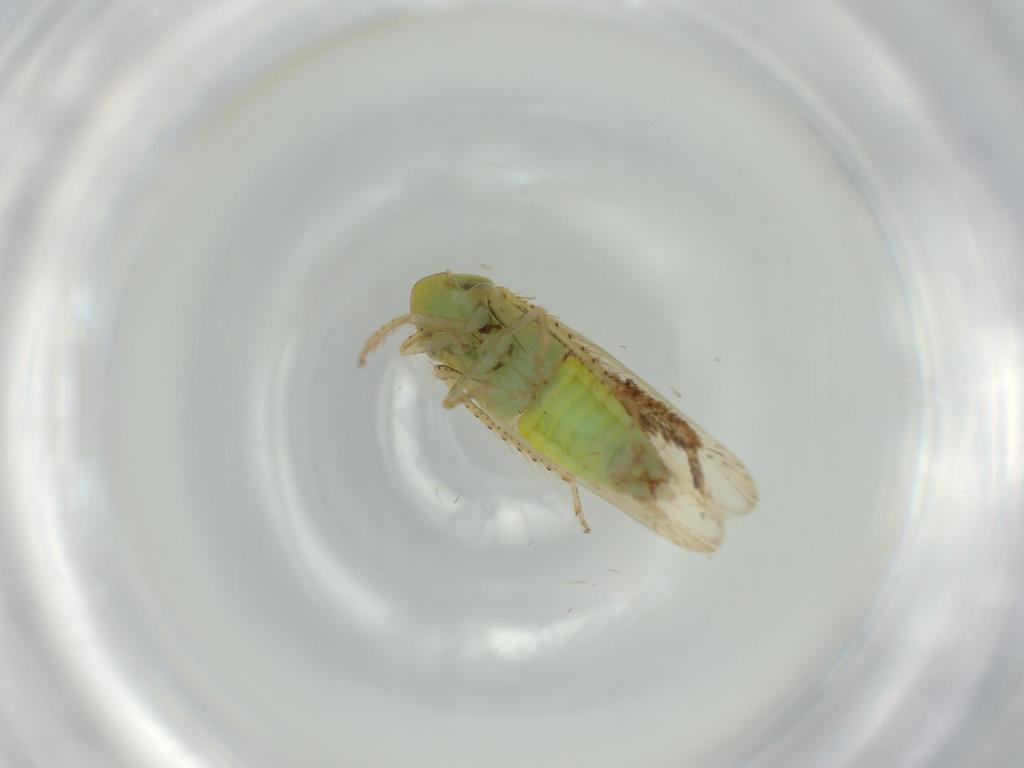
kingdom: Animalia
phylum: Arthropoda
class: Insecta
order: Hemiptera
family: Cicadellidae
